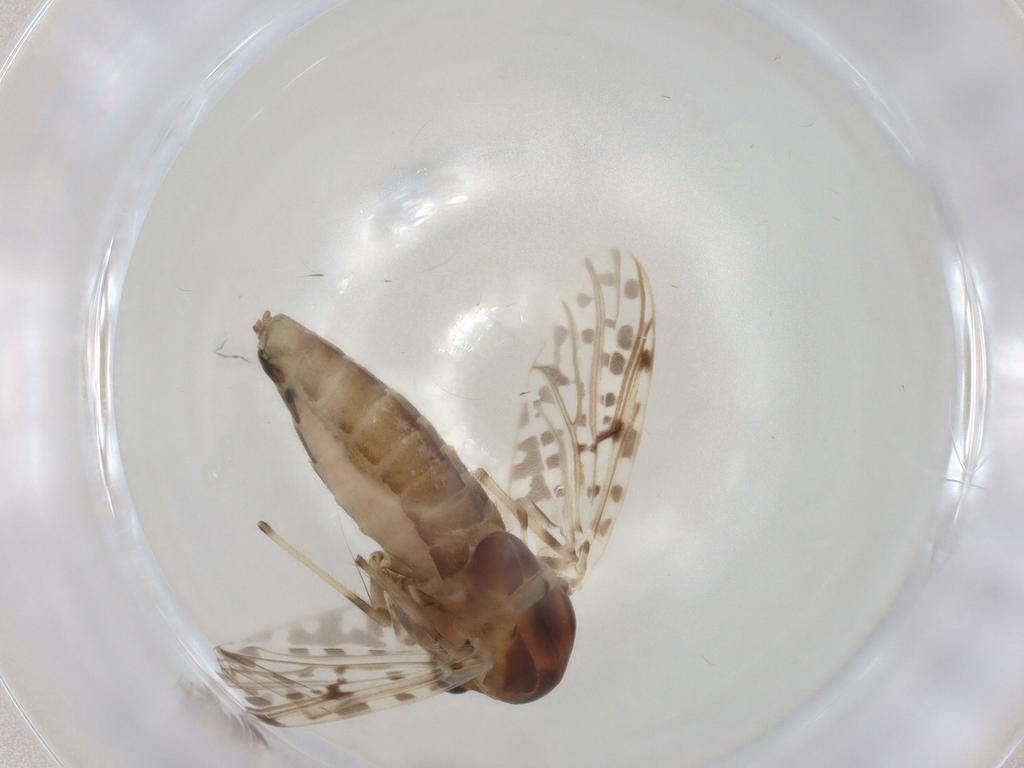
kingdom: Animalia
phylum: Arthropoda
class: Insecta
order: Diptera
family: Chironomidae
